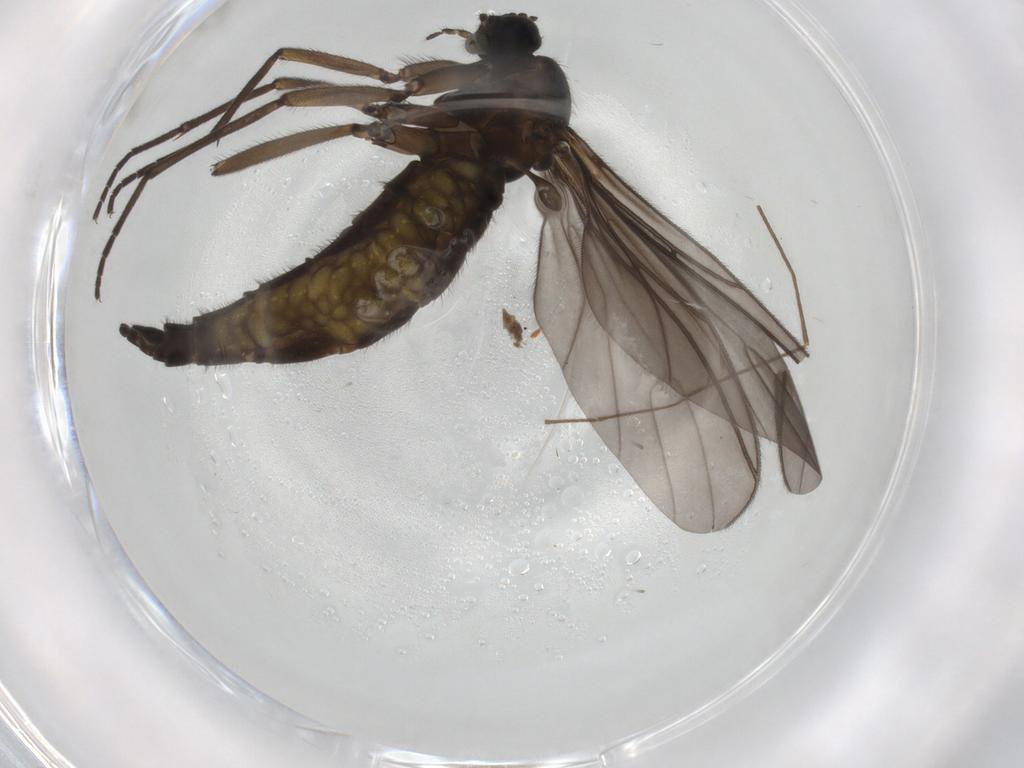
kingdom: Animalia
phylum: Arthropoda
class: Insecta
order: Diptera
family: Sciaridae
